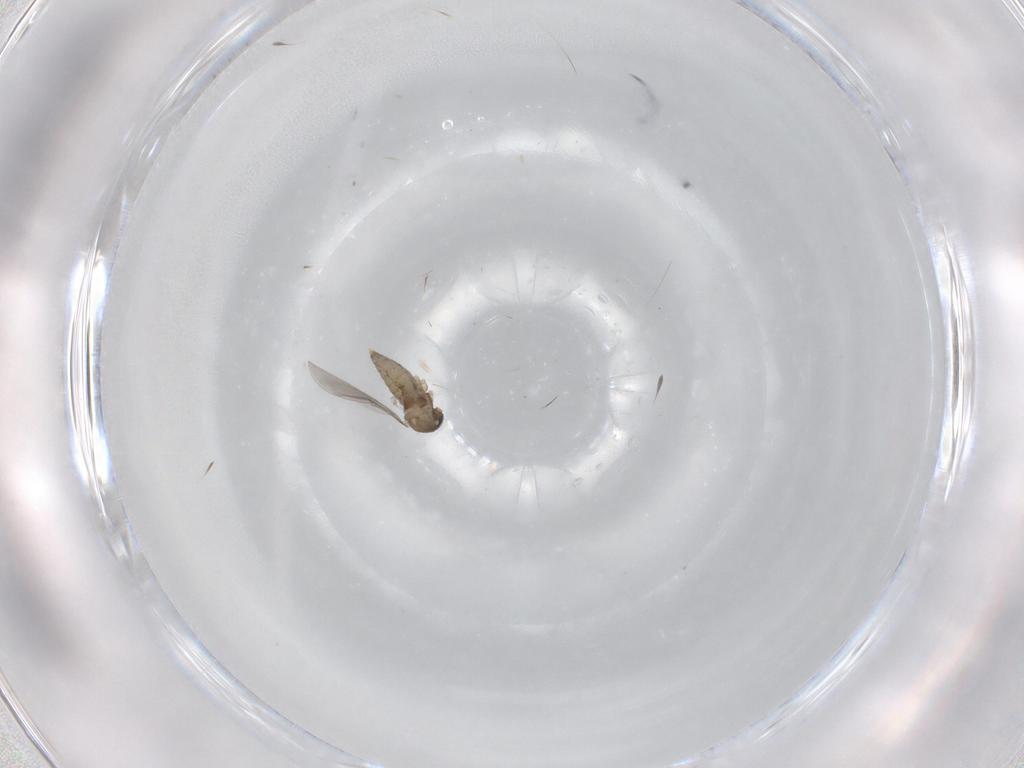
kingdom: Animalia
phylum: Arthropoda
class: Insecta
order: Diptera
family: Cecidomyiidae
